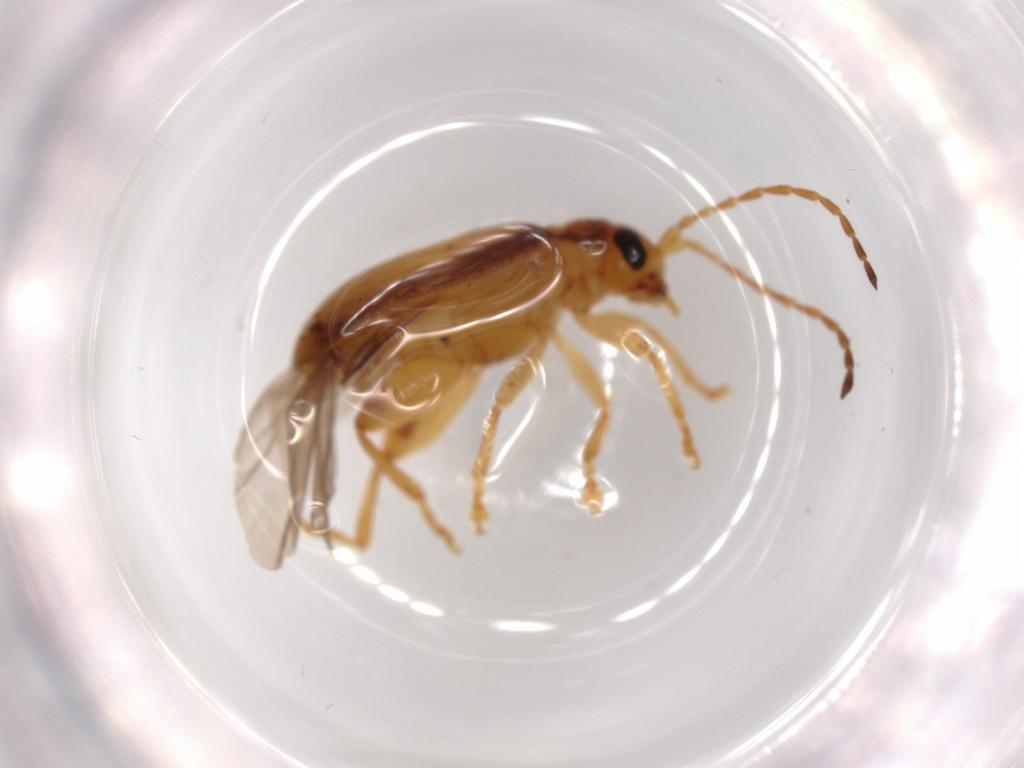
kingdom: Animalia
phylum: Arthropoda
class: Insecta
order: Coleoptera
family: Chrysomelidae
